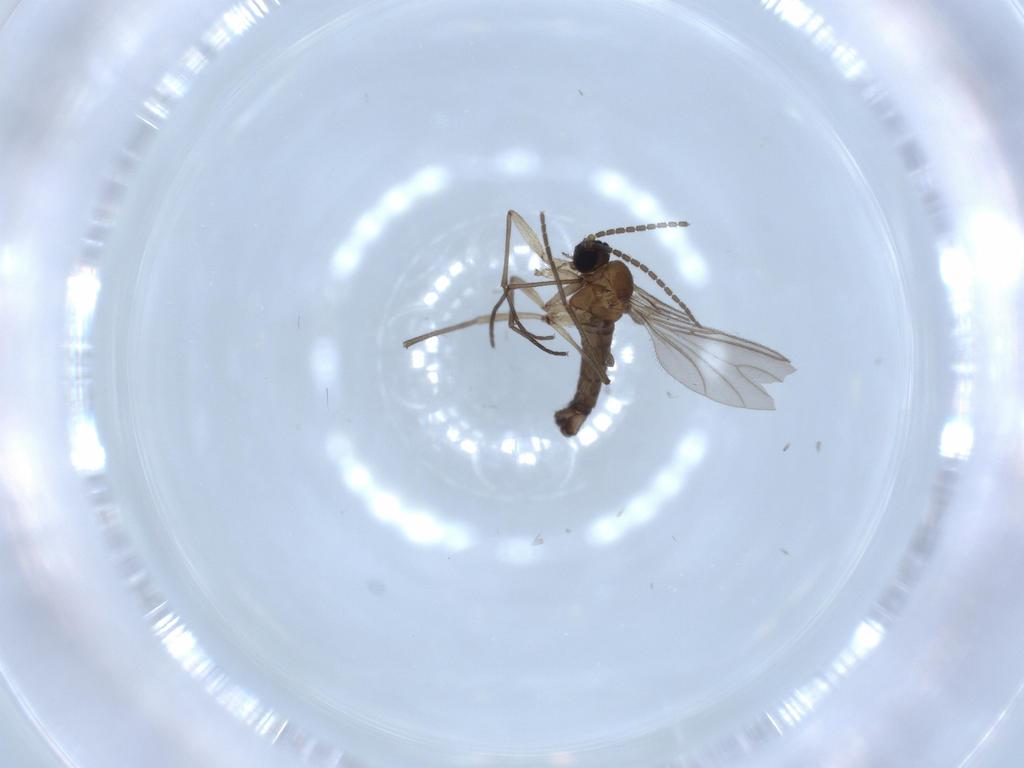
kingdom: Animalia
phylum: Arthropoda
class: Insecta
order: Diptera
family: Sciaridae
